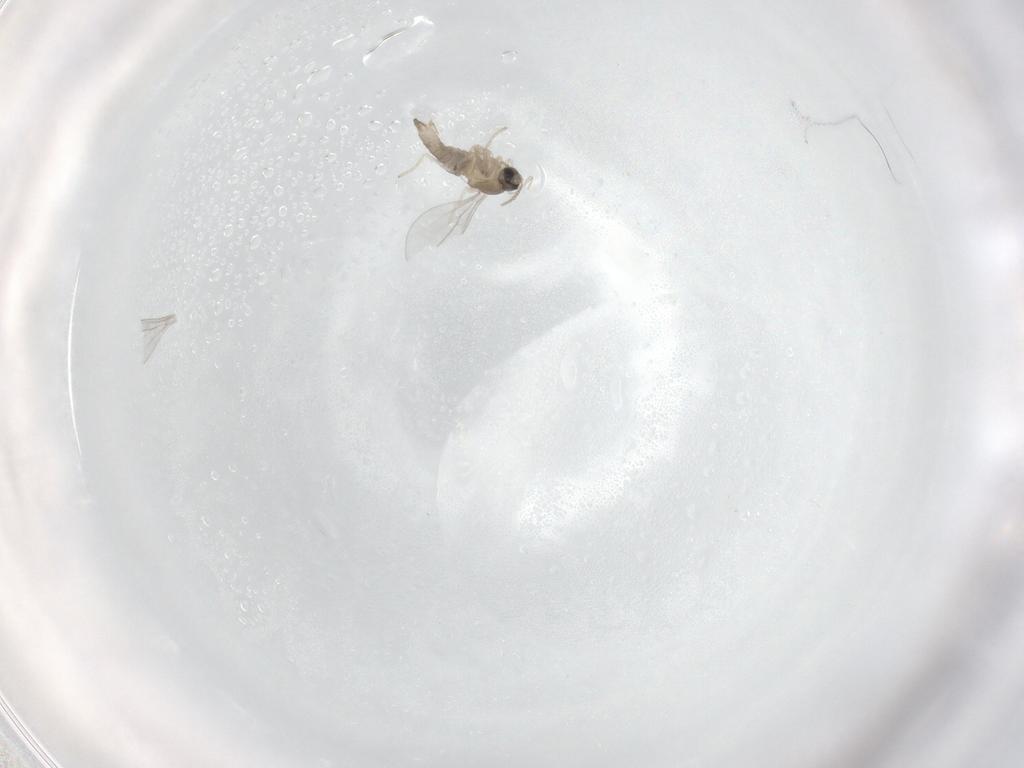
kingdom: Animalia
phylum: Arthropoda
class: Insecta
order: Diptera
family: Cecidomyiidae
